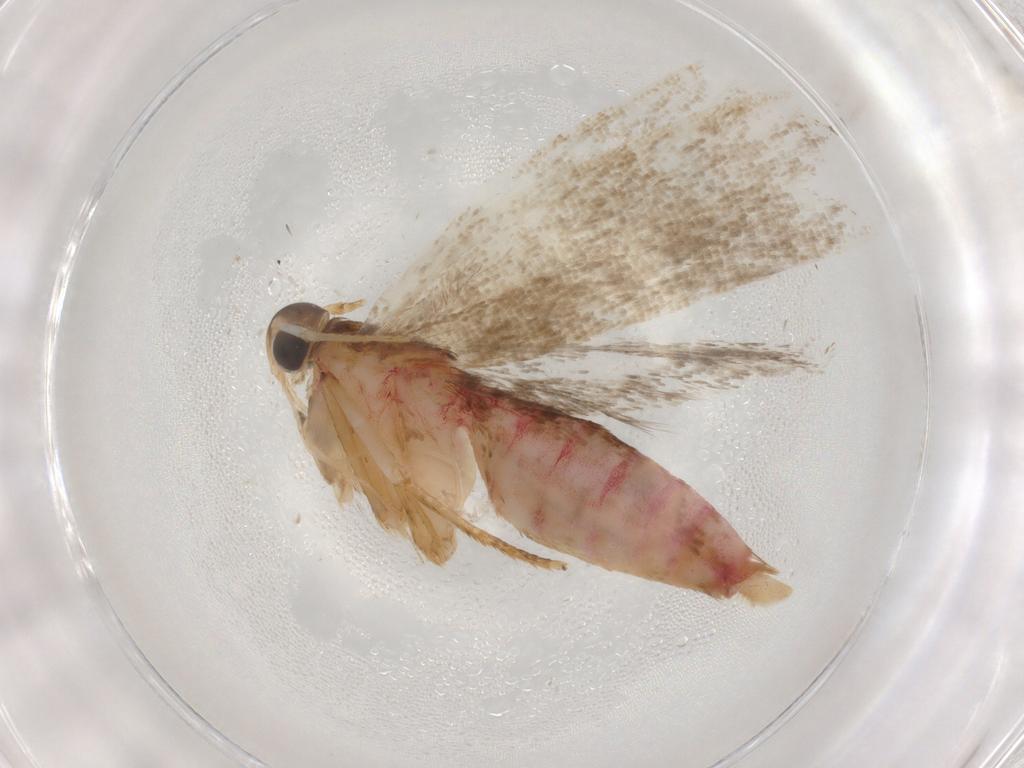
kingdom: Animalia
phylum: Arthropoda
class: Insecta
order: Lepidoptera
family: Autostichidae
